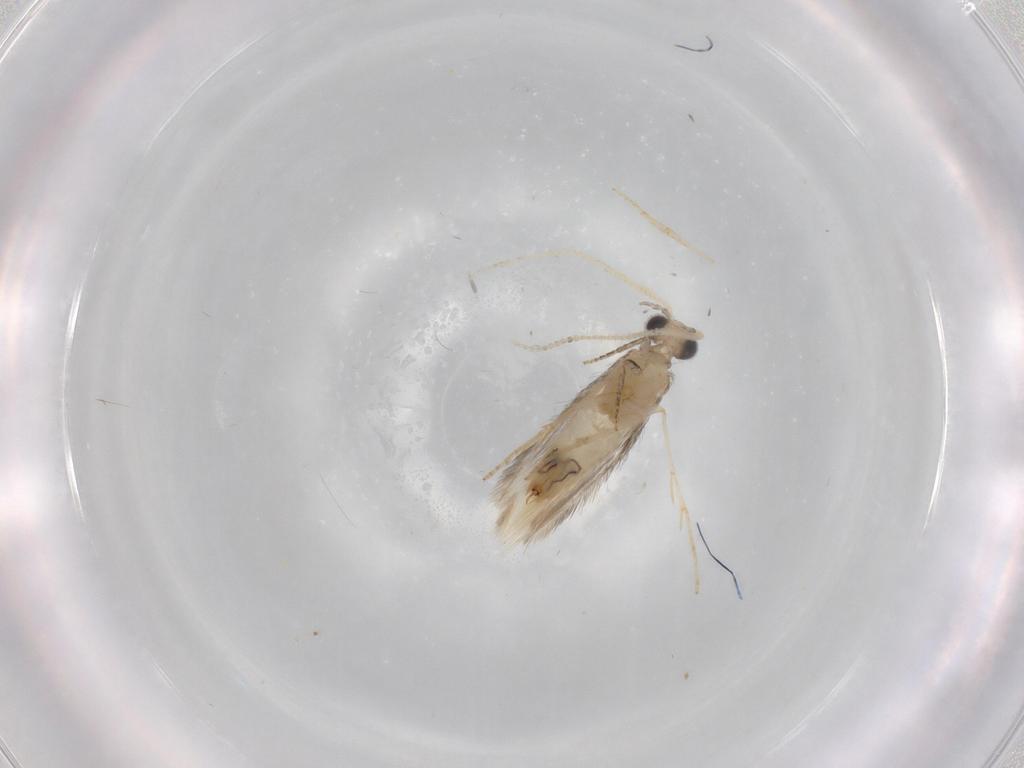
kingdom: Animalia
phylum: Arthropoda
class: Insecta
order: Trichoptera
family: Hydroptilidae
